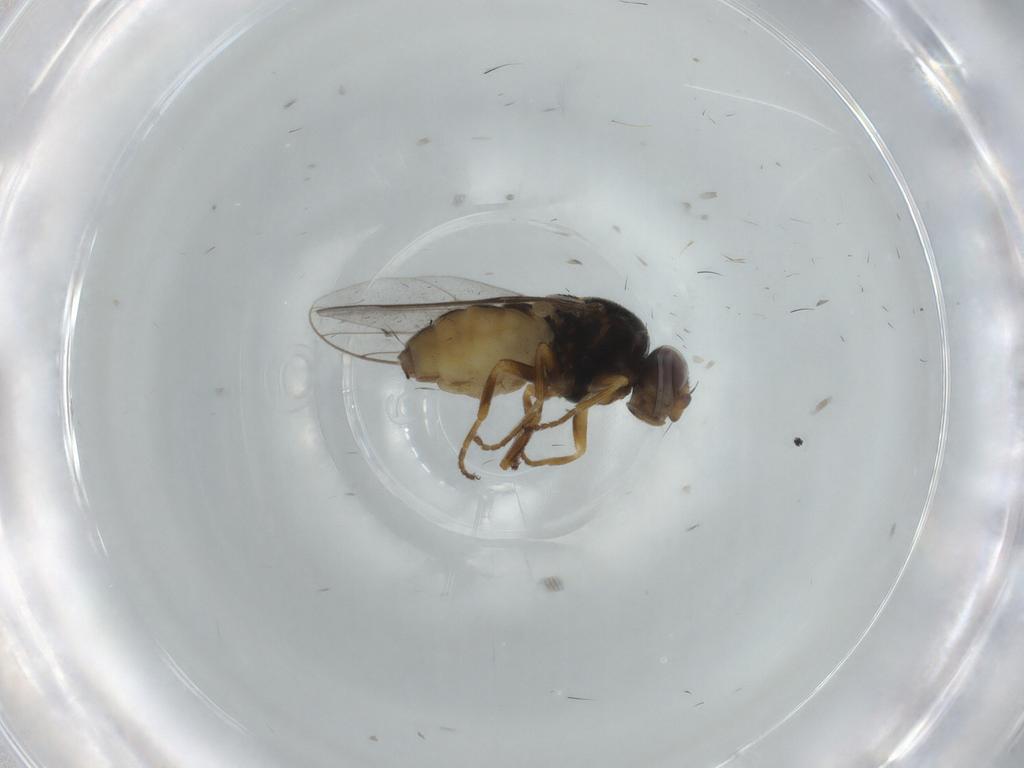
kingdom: Animalia
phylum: Arthropoda
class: Insecta
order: Diptera
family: Chloropidae
